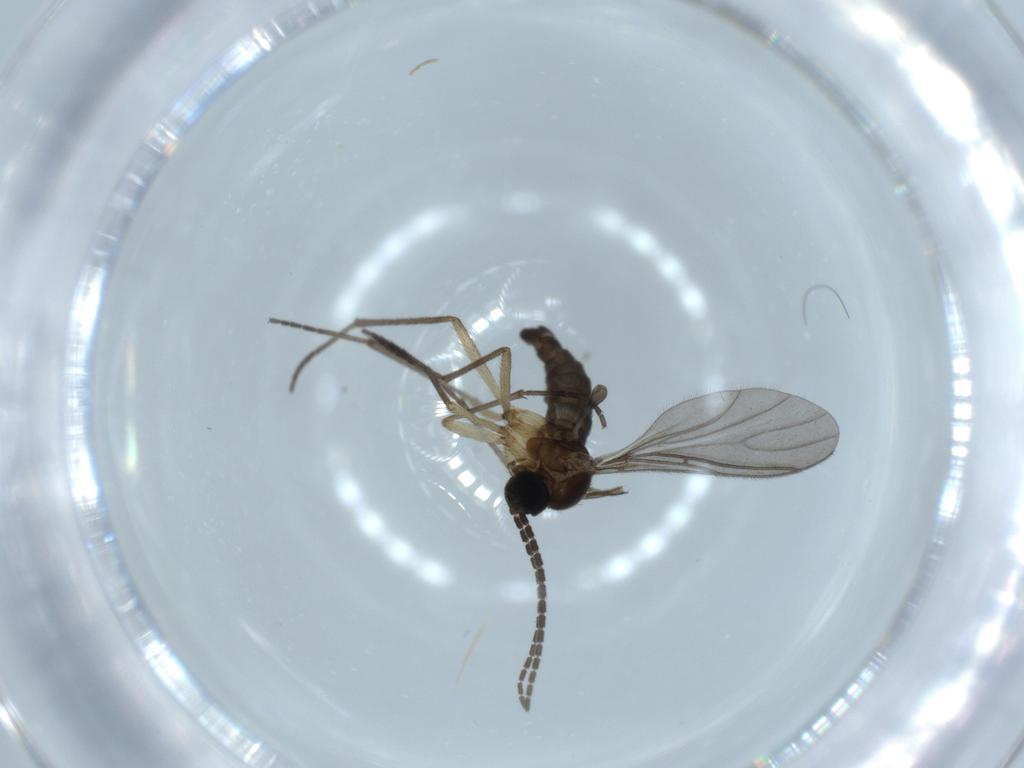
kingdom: Animalia
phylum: Arthropoda
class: Insecta
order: Diptera
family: Sciaridae
